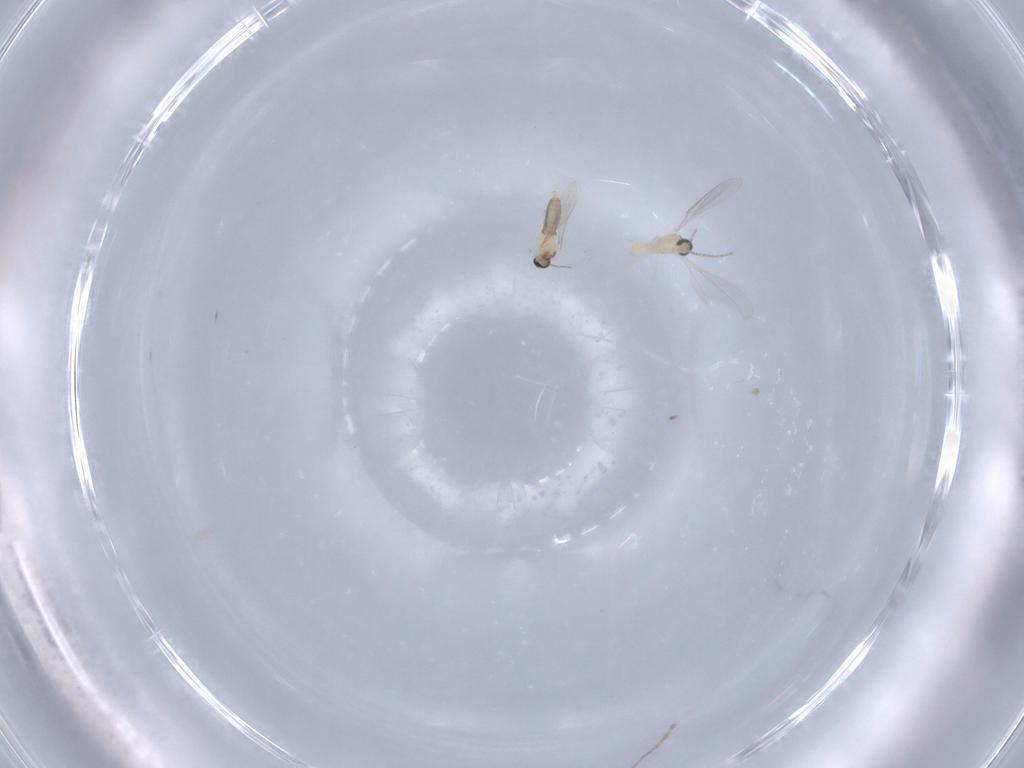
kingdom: Animalia
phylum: Arthropoda
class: Insecta
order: Diptera
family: Cecidomyiidae
